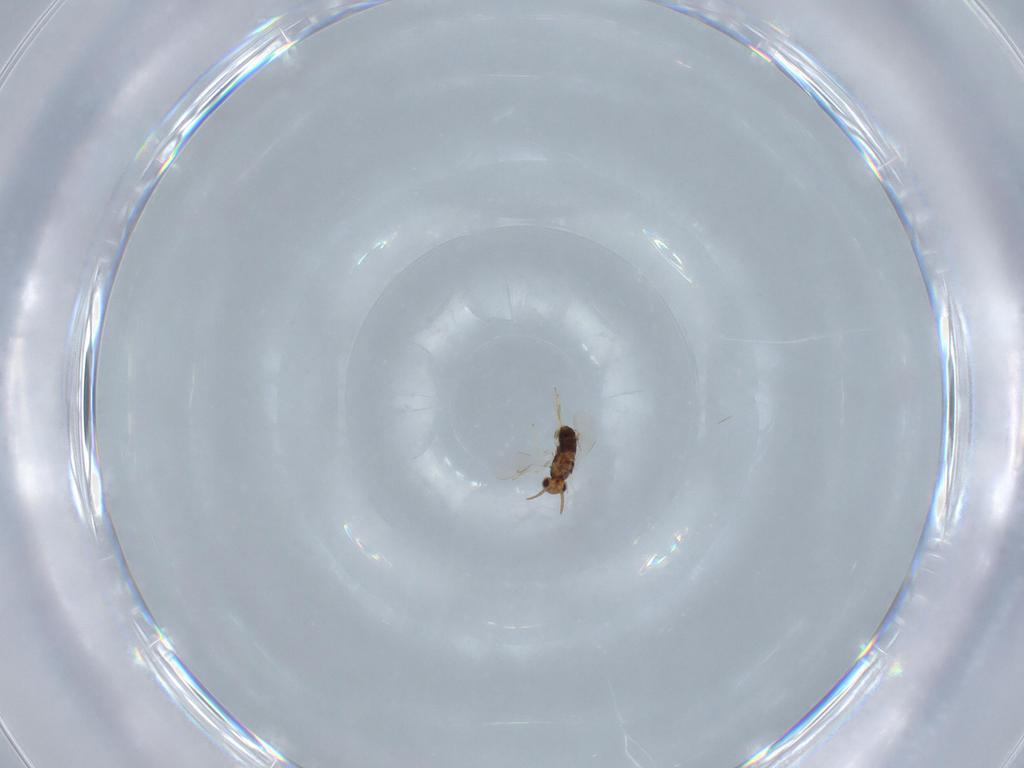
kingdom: Animalia
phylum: Arthropoda
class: Insecta
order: Hymenoptera
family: Aphelinidae
